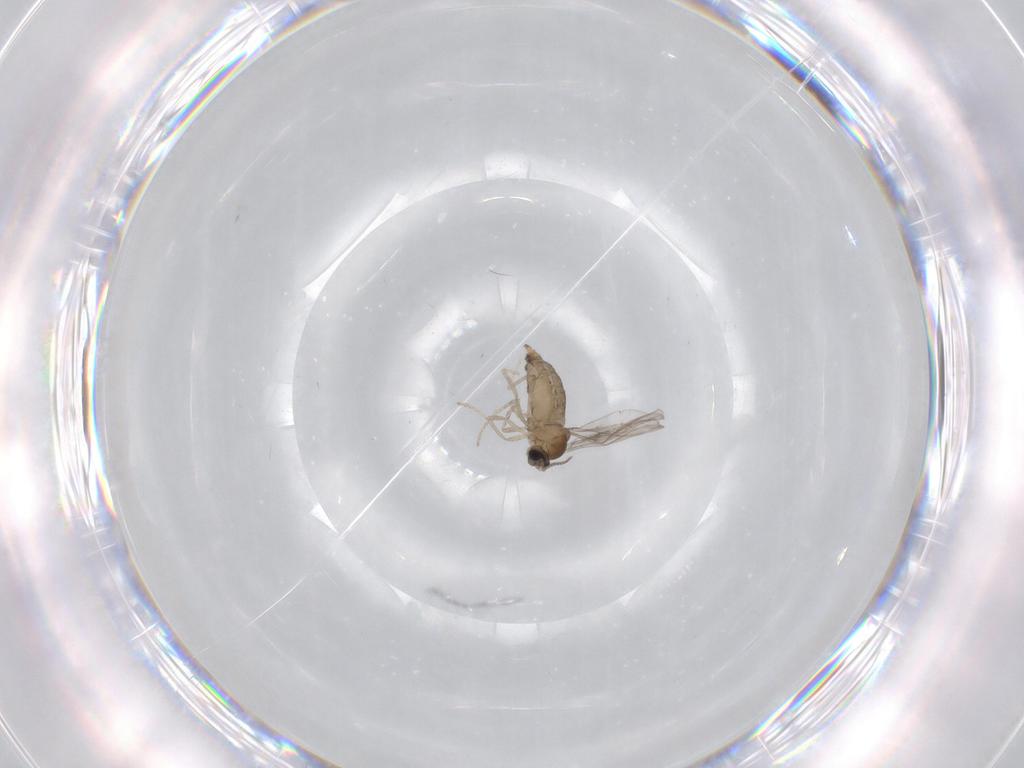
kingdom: Animalia
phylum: Arthropoda
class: Insecta
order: Diptera
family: Cecidomyiidae
